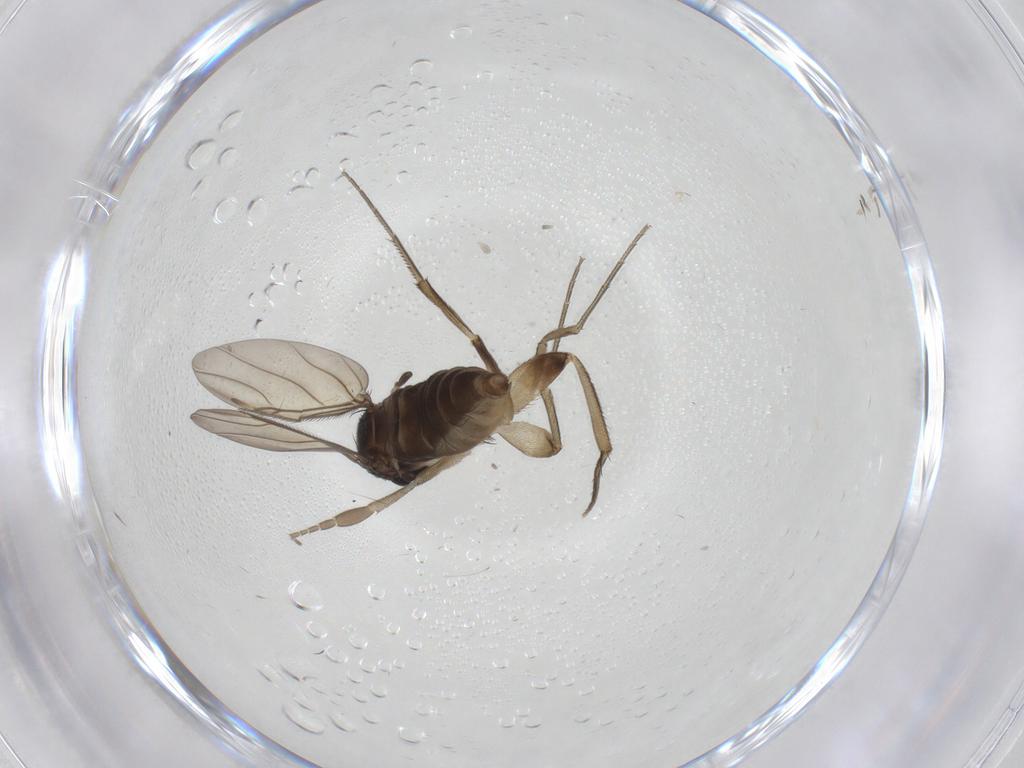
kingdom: Animalia
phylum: Arthropoda
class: Insecta
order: Diptera
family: Phoridae
